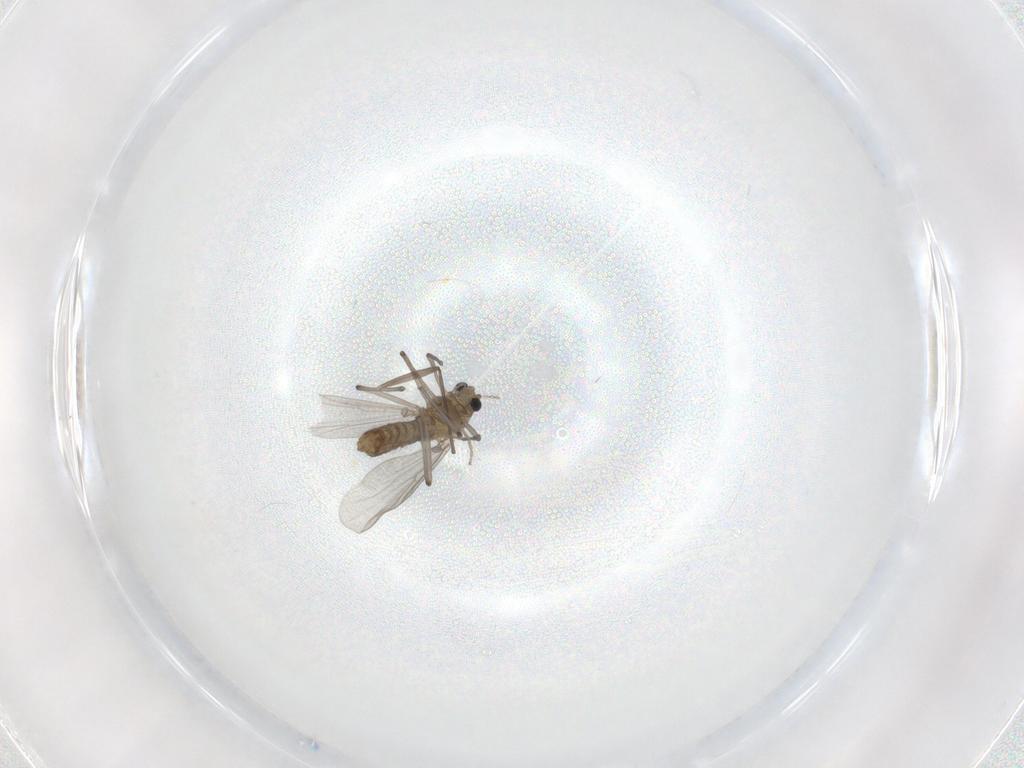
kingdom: Animalia
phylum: Arthropoda
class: Insecta
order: Diptera
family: Chironomidae
